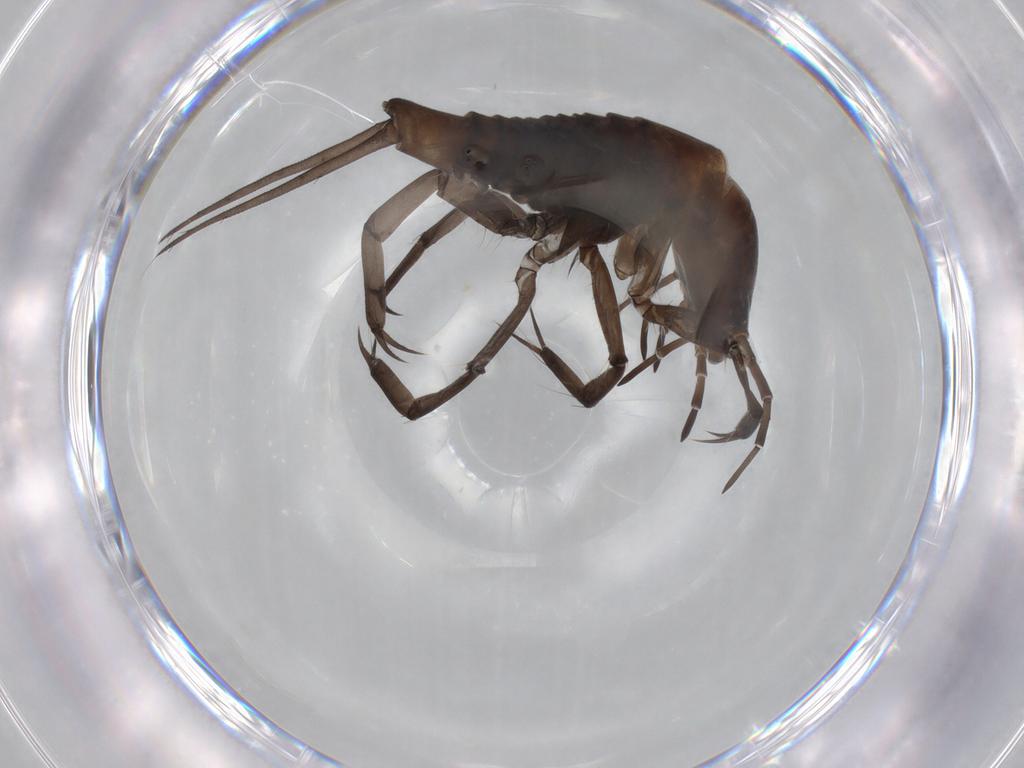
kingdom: Animalia
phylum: Arthropoda
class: Insecta
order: Coleoptera
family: Dytiscidae
